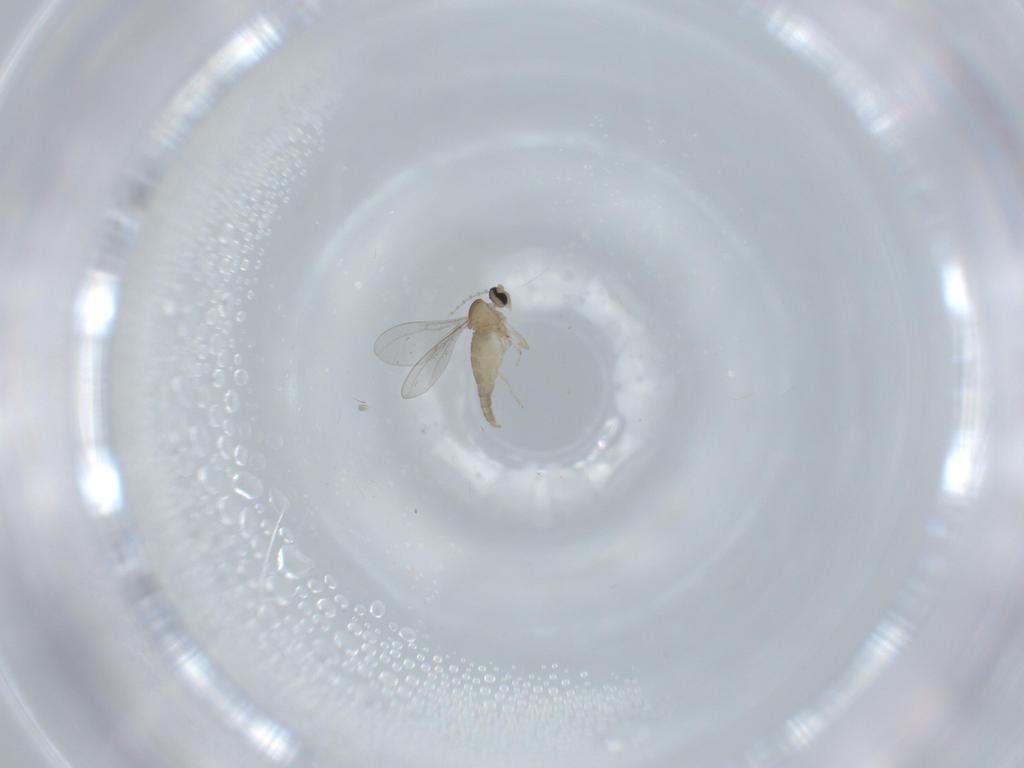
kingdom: Animalia
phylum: Arthropoda
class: Insecta
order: Diptera
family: Cecidomyiidae
